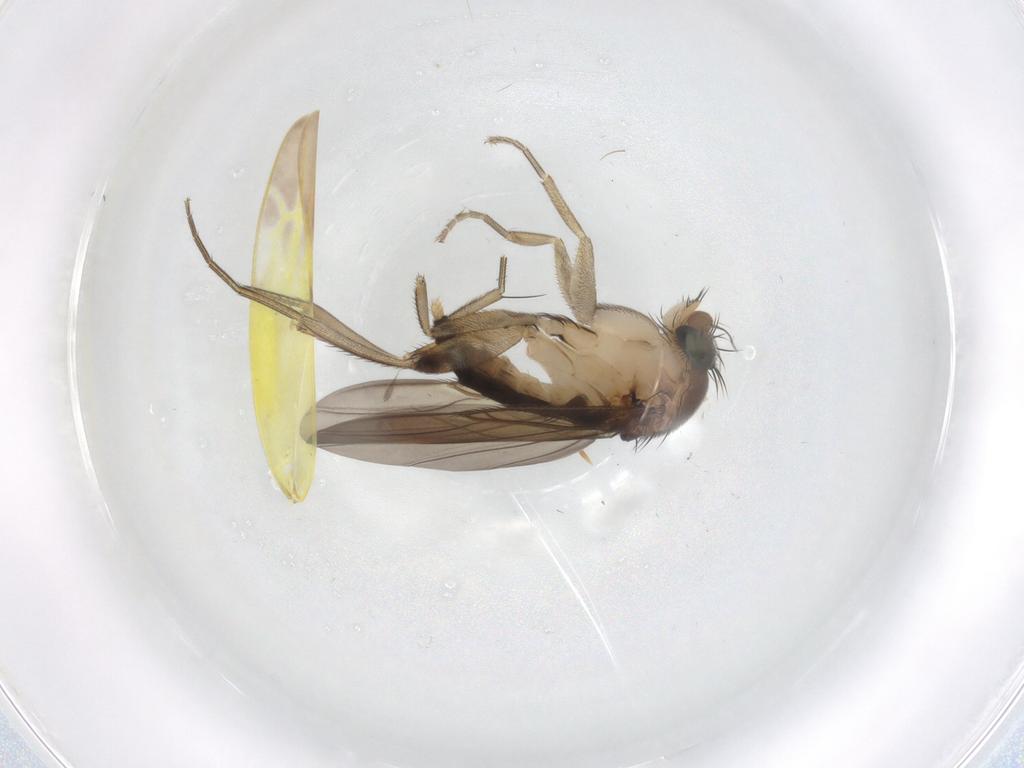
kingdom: Animalia
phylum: Arthropoda
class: Insecta
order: Diptera
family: Phoridae
